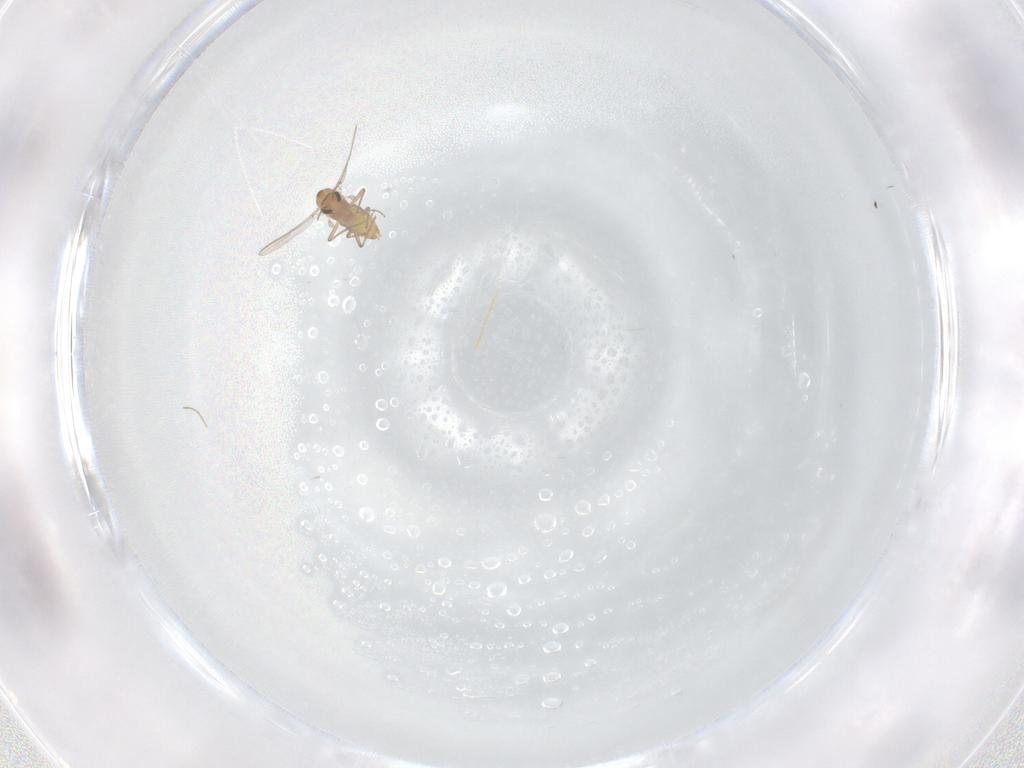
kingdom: Animalia
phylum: Arthropoda
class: Insecta
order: Diptera
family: Chironomidae
